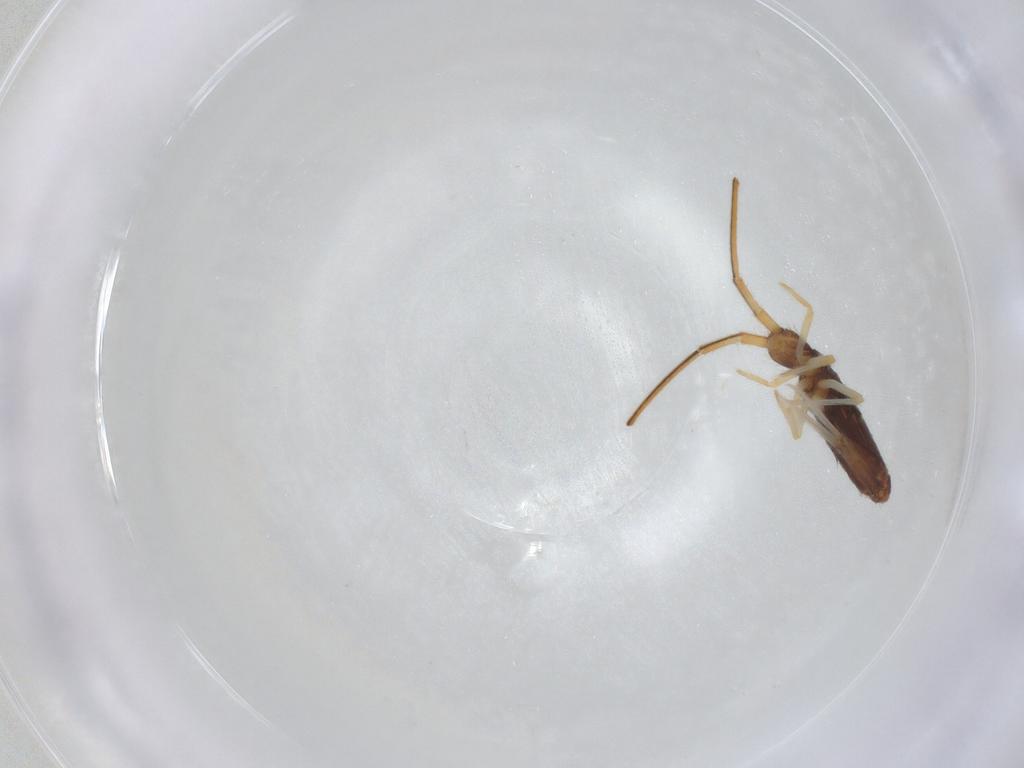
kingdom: Animalia
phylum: Arthropoda
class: Collembola
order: Entomobryomorpha
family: Entomobryidae
